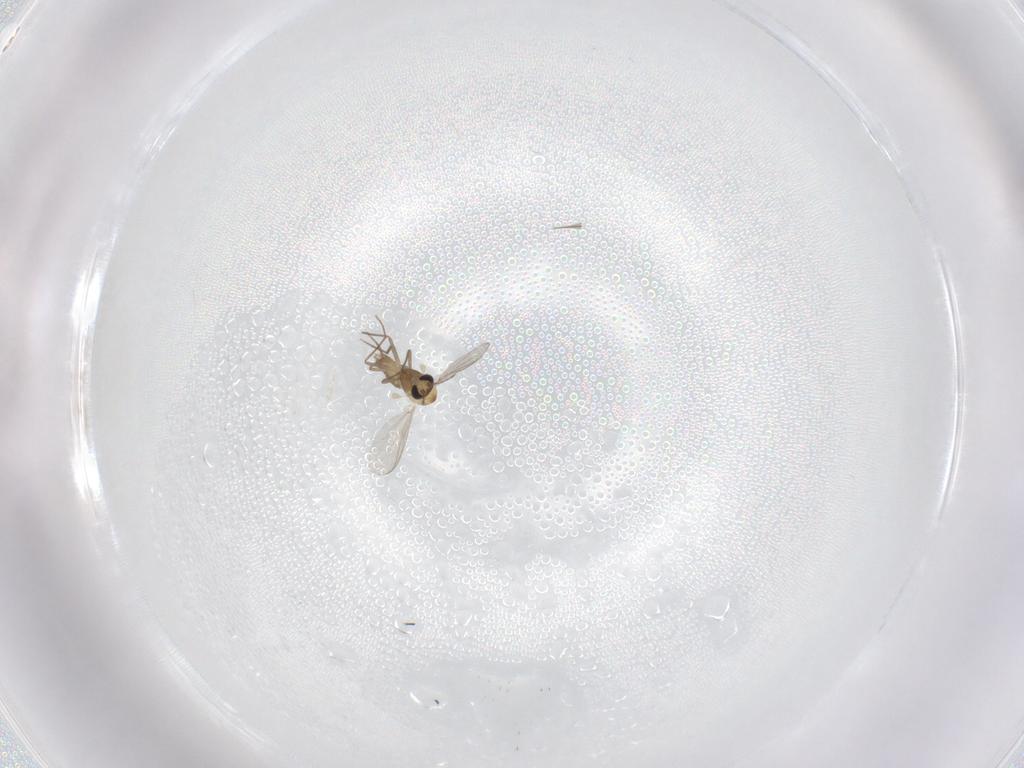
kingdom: Animalia
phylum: Arthropoda
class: Insecta
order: Diptera
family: Chironomidae
